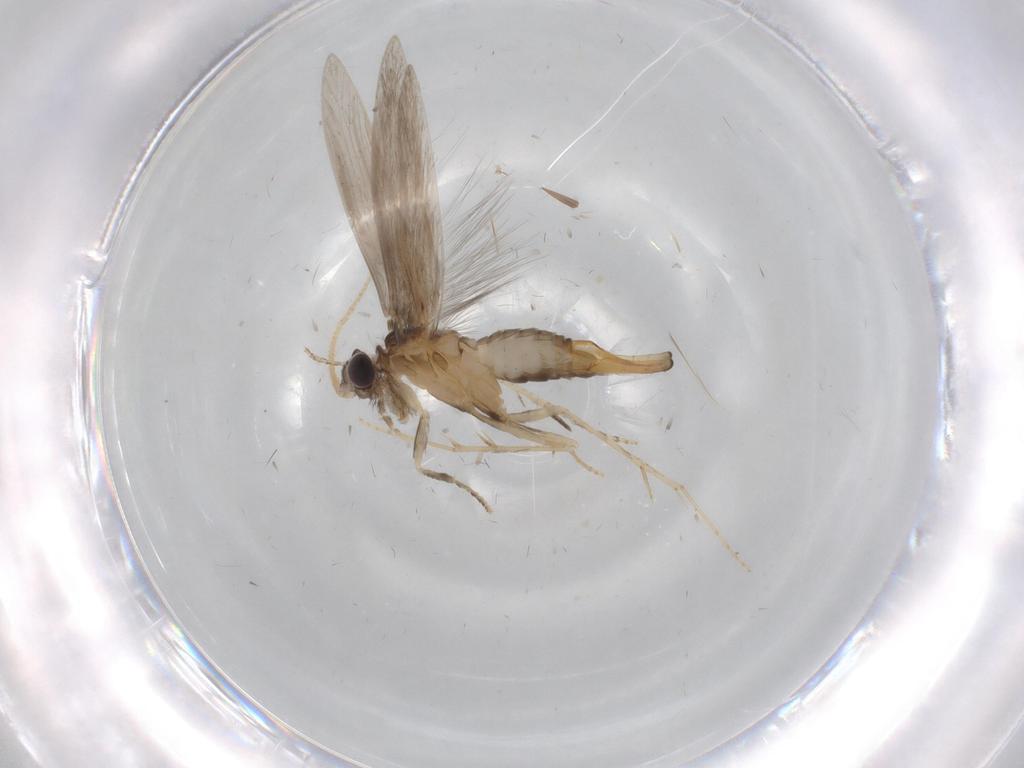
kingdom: Animalia
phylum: Arthropoda
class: Insecta
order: Trichoptera
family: Hydroptilidae
